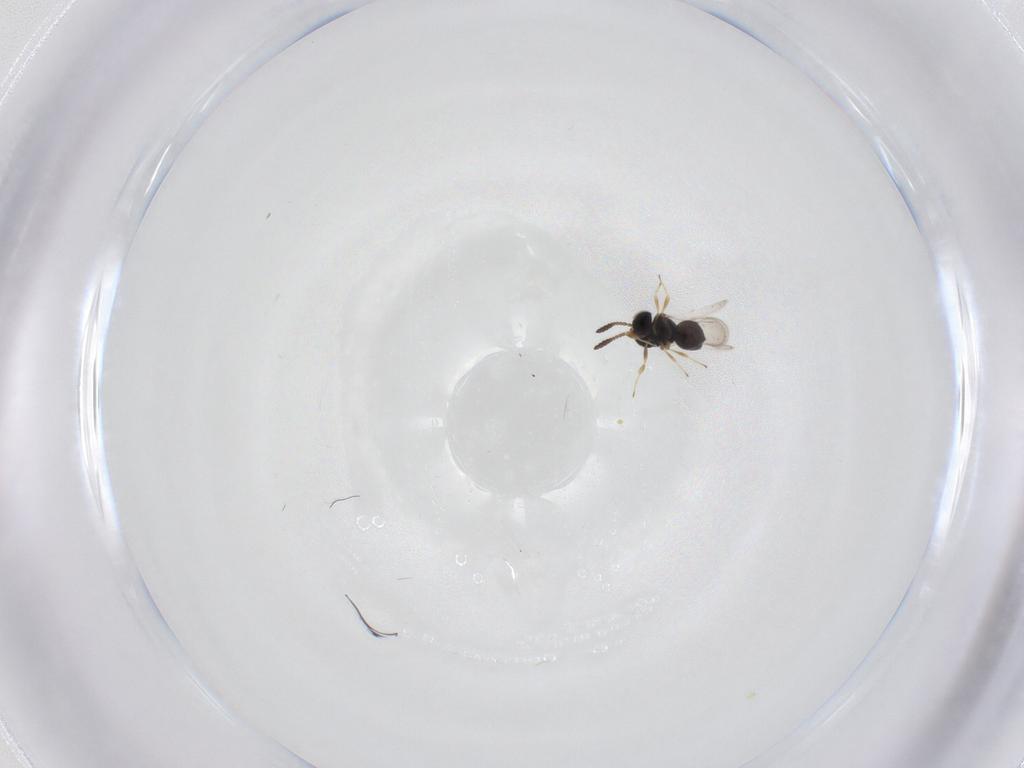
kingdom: Animalia
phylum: Arthropoda
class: Insecta
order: Hymenoptera
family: Scelionidae
